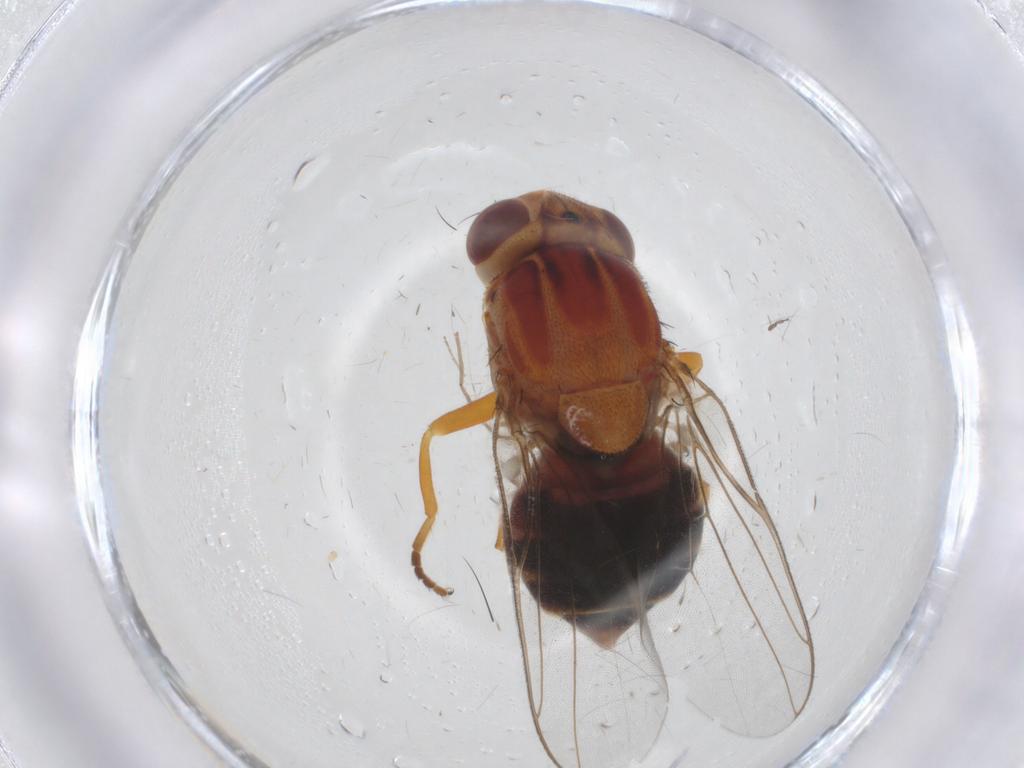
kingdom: Animalia
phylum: Arthropoda
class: Insecta
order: Diptera
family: Chloropidae
